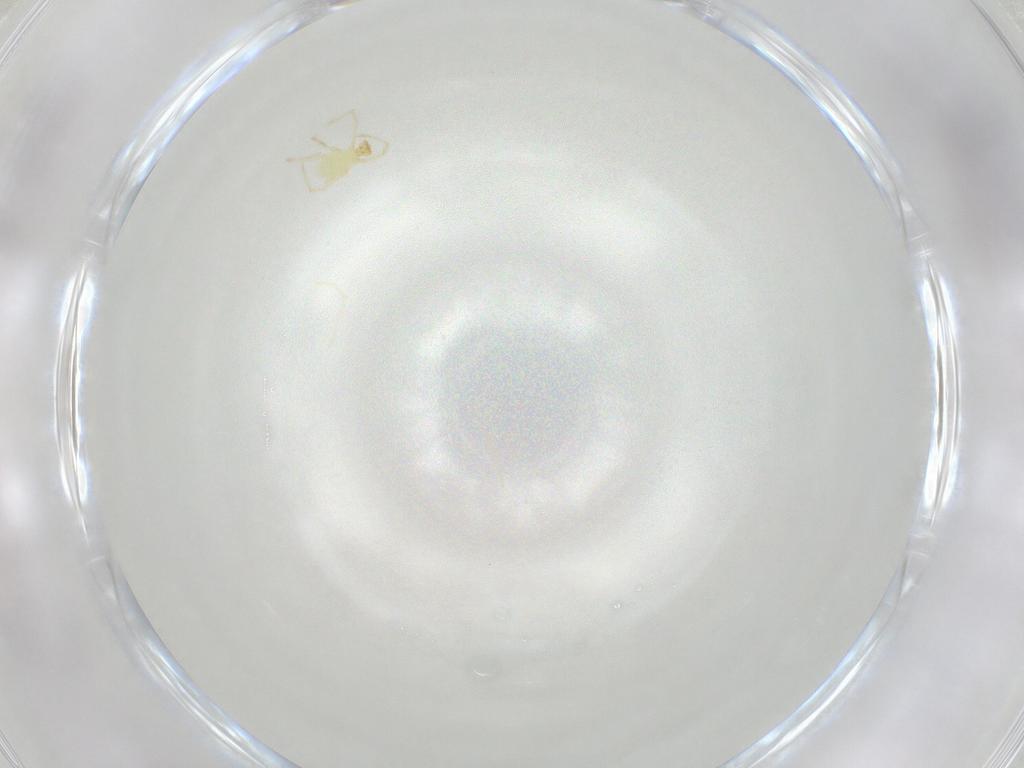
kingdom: Animalia
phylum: Arthropoda
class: Arachnida
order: Trombidiformes
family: Erythraeidae
